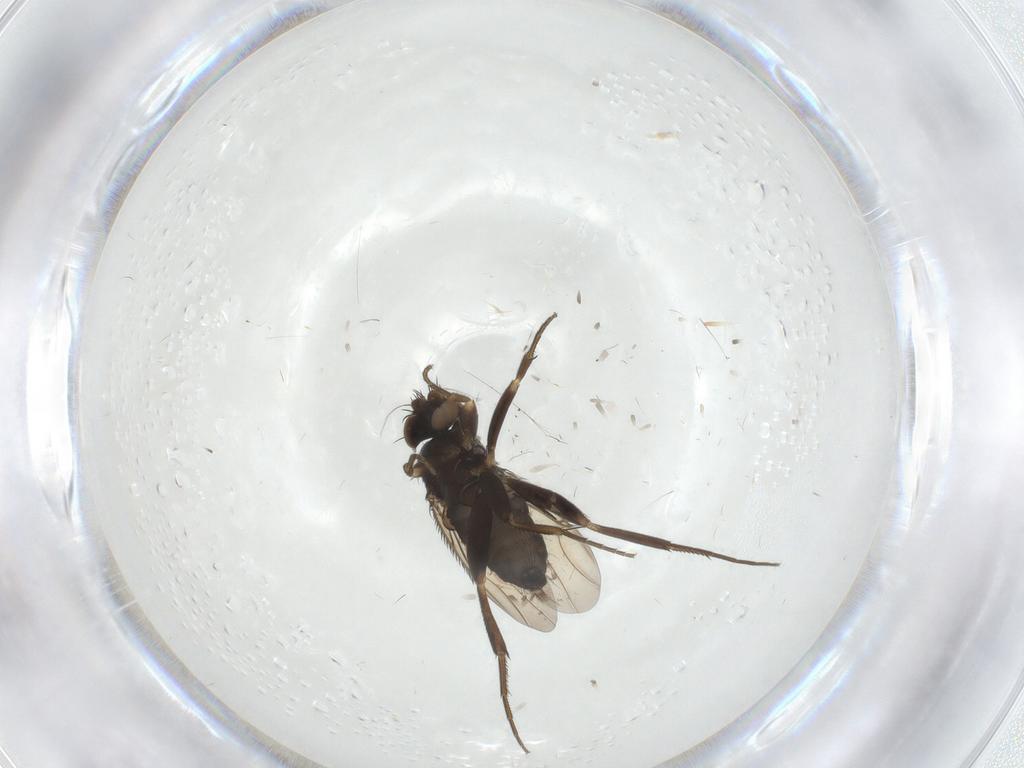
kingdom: Animalia
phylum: Arthropoda
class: Insecta
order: Diptera
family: Phoridae
